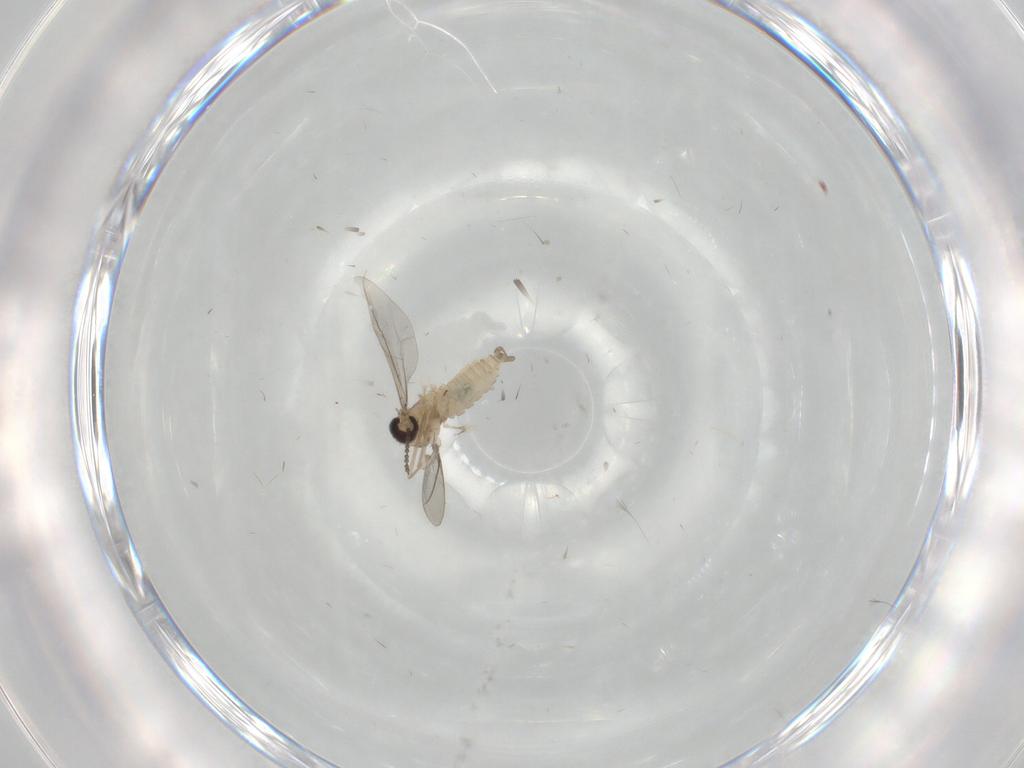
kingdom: Animalia
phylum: Arthropoda
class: Insecta
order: Diptera
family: Cecidomyiidae
